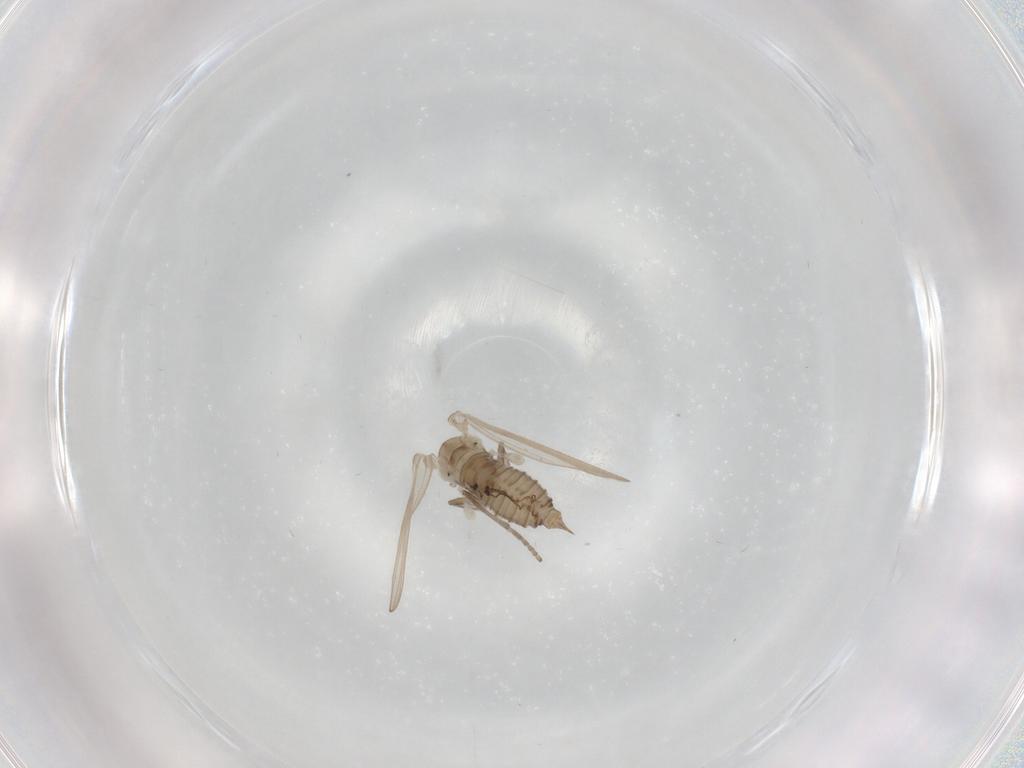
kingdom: Animalia
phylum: Arthropoda
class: Insecta
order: Diptera
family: Psychodidae
